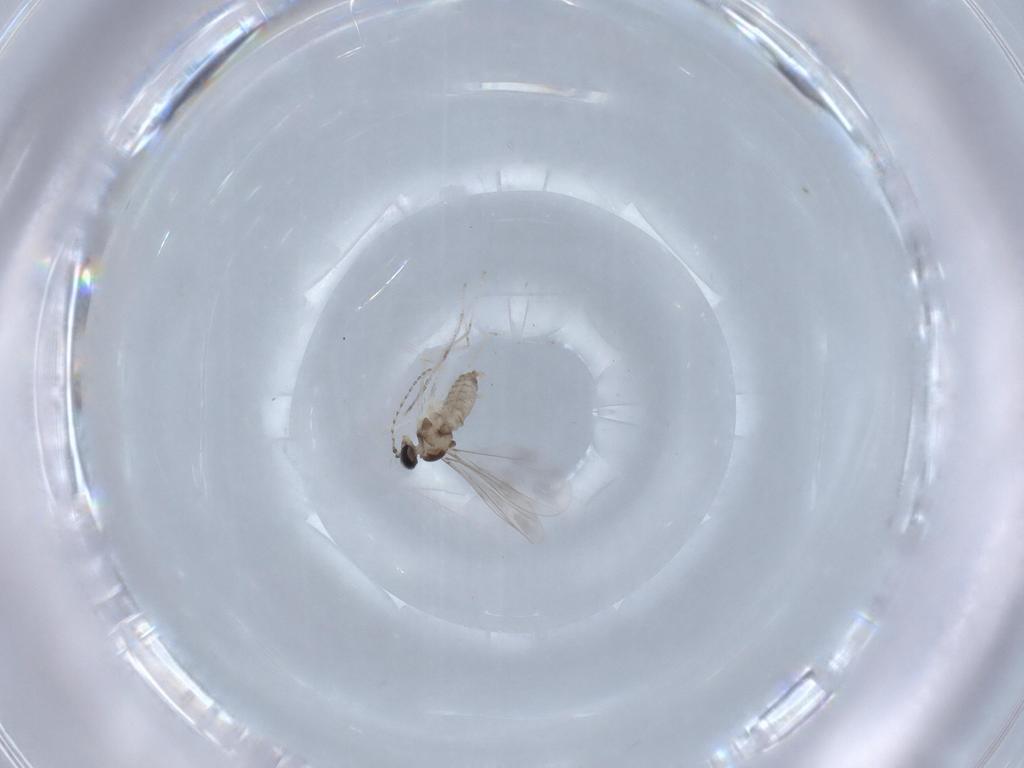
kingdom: Animalia
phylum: Arthropoda
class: Insecta
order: Diptera
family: Cecidomyiidae
